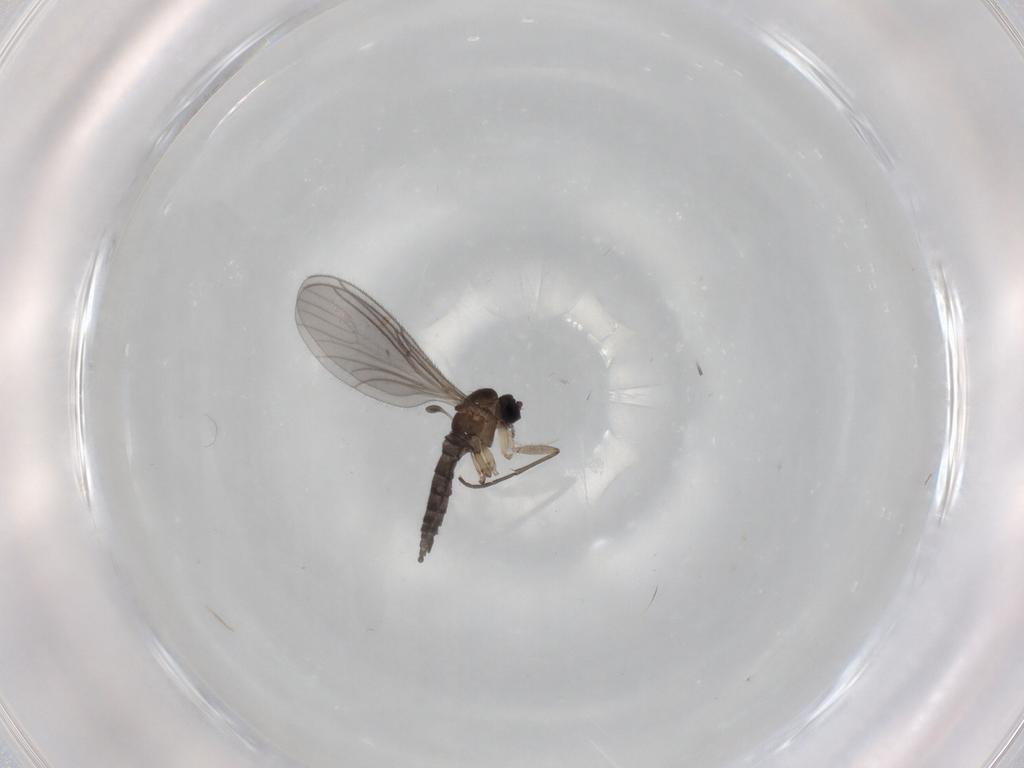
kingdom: Animalia
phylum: Arthropoda
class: Insecta
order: Diptera
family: Sciaridae
